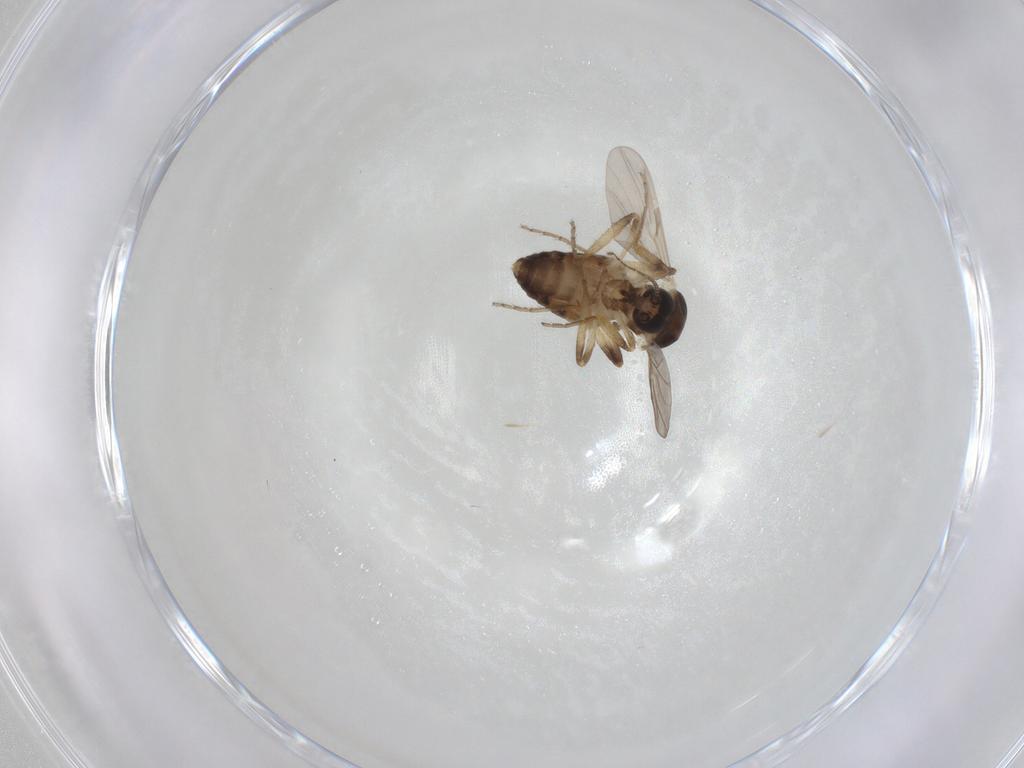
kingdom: Animalia
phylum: Arthropoda
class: Insecta
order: Diptera
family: Ceratopogonidae
